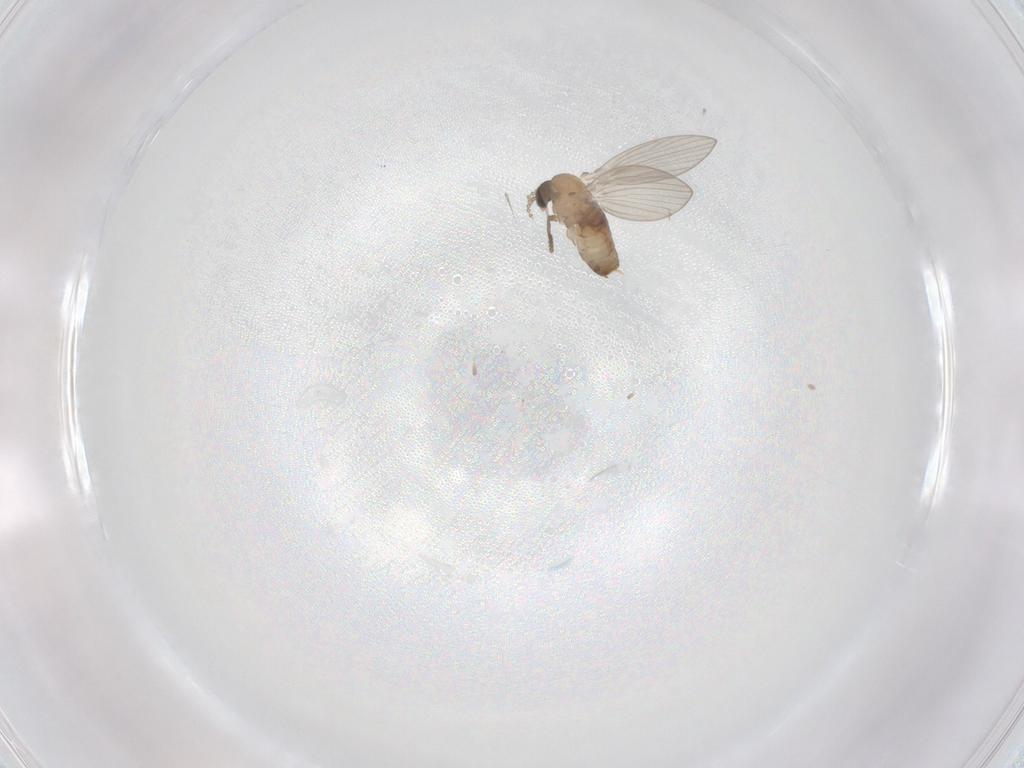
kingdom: Animalia
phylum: Arthropoda
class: Insecta
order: Diptera
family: Psychodidae
